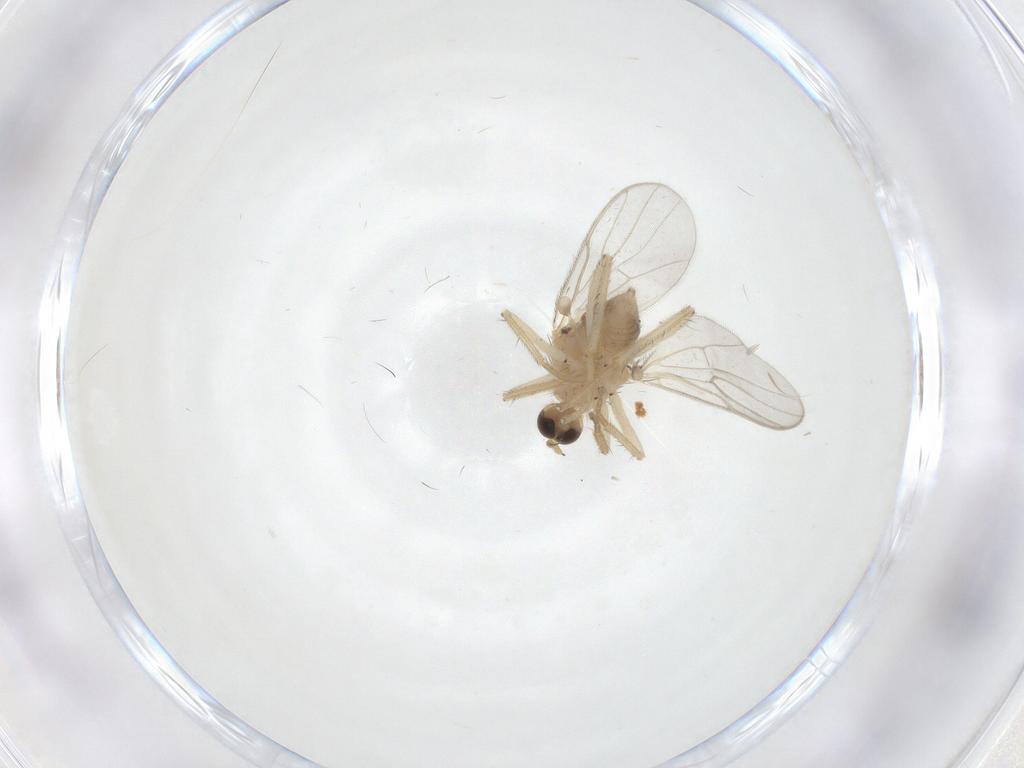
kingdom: Animalia
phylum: Arthropoda
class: Insecta
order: Diptera
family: Hybotidae
